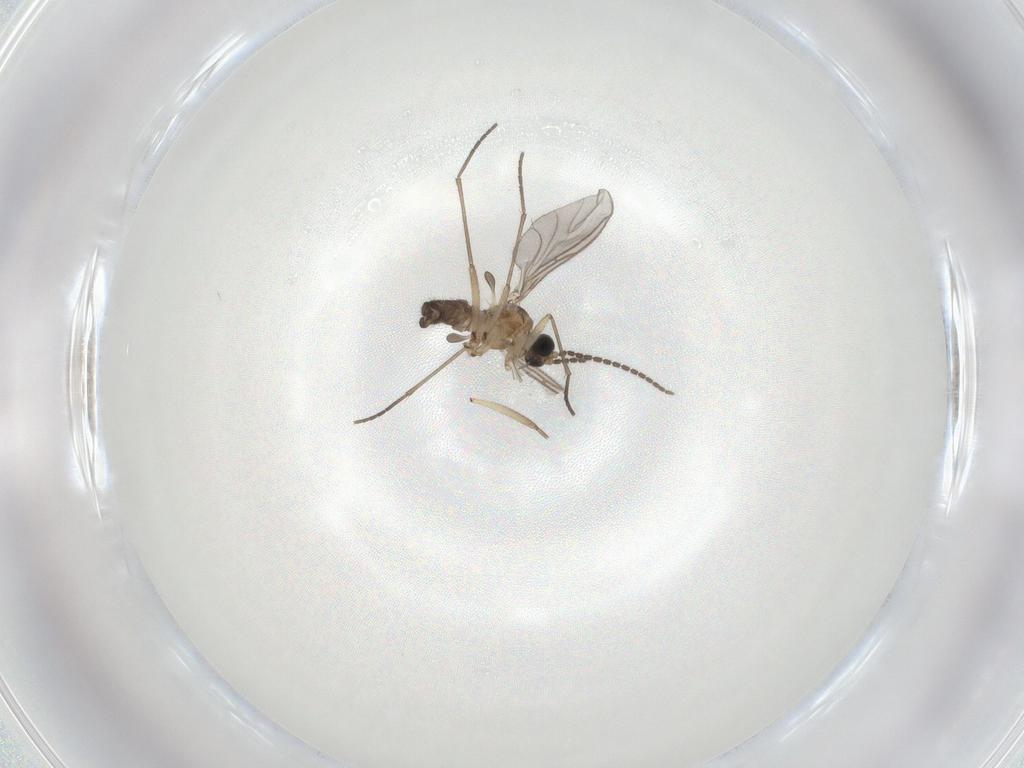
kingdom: Animalia
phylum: Arthropoda
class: Insecta
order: Diptera
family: Sciaridae
